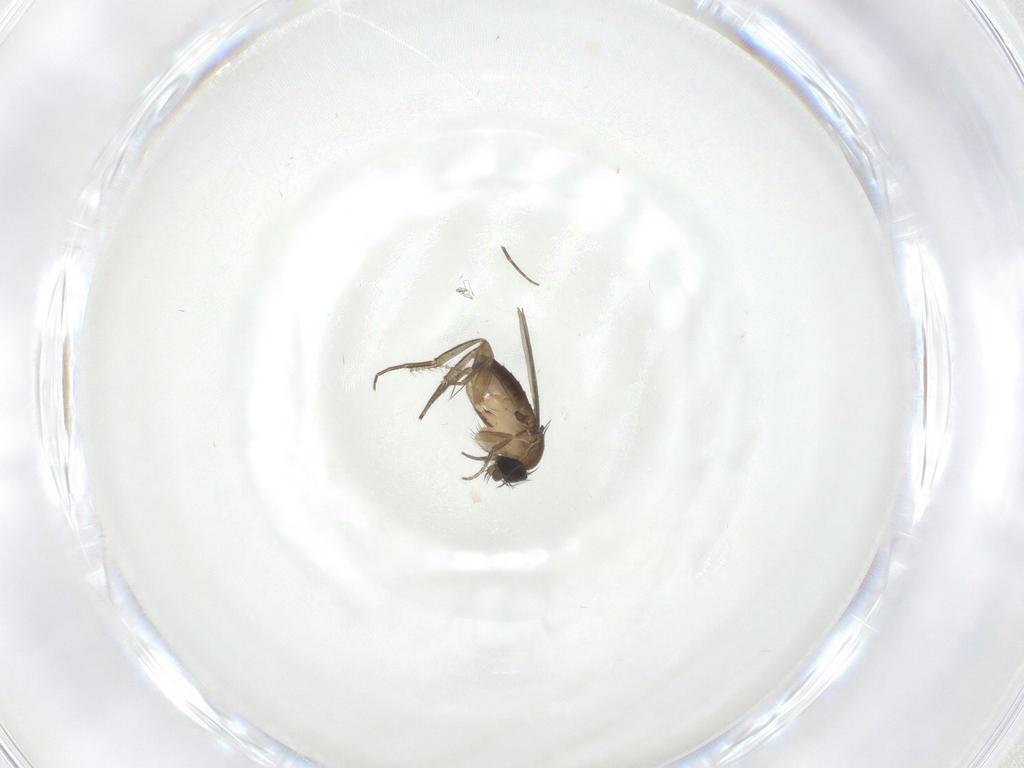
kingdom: Animalia
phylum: Arthropoda
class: Insecta
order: Diptera
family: Phoridae
